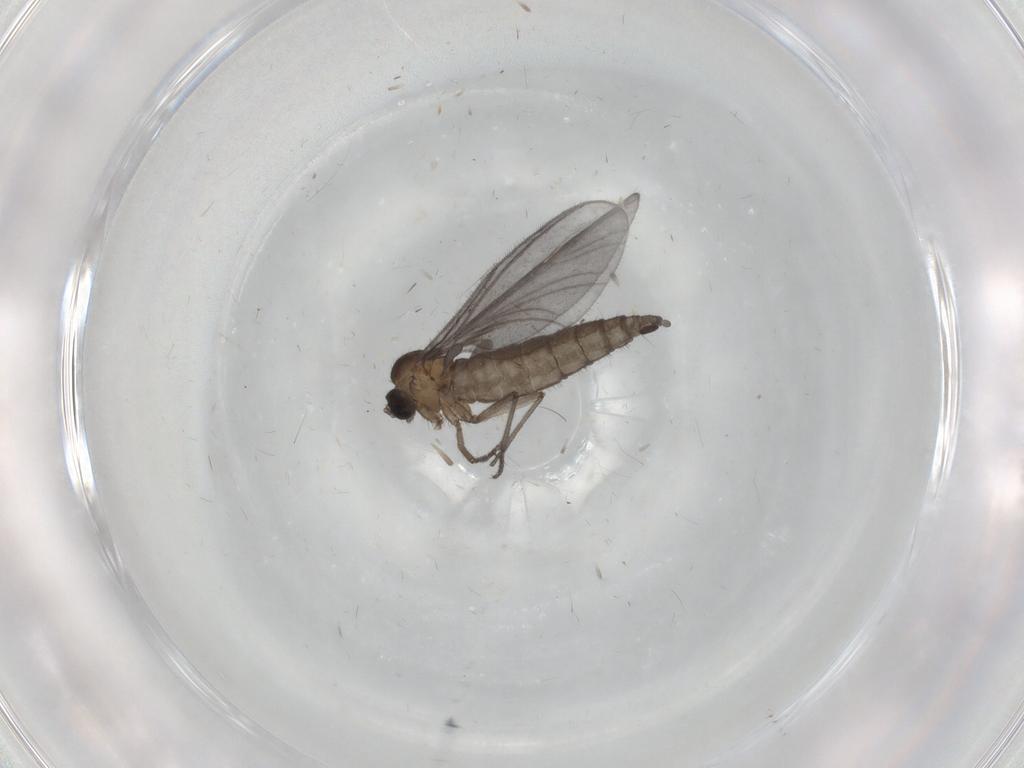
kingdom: Animalia
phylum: Arthropoda
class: Insecta
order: Diptera
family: Sciaridae
